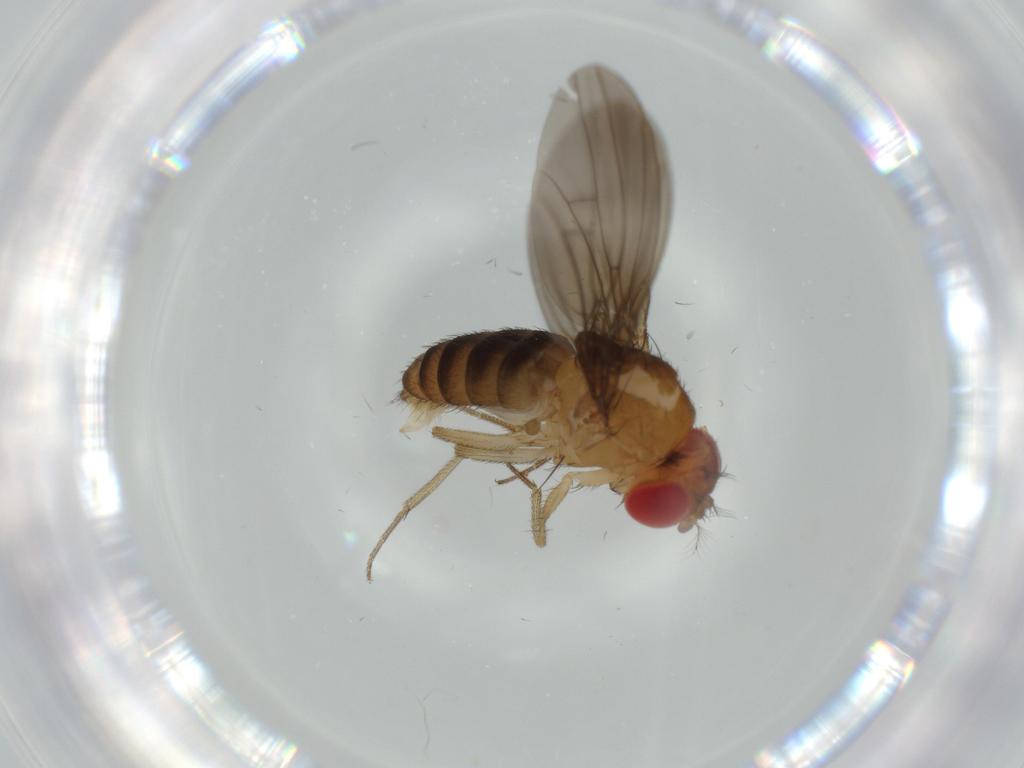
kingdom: Animalia
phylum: Arthropoda
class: Insecta
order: Diptera
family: Drosophilidae
